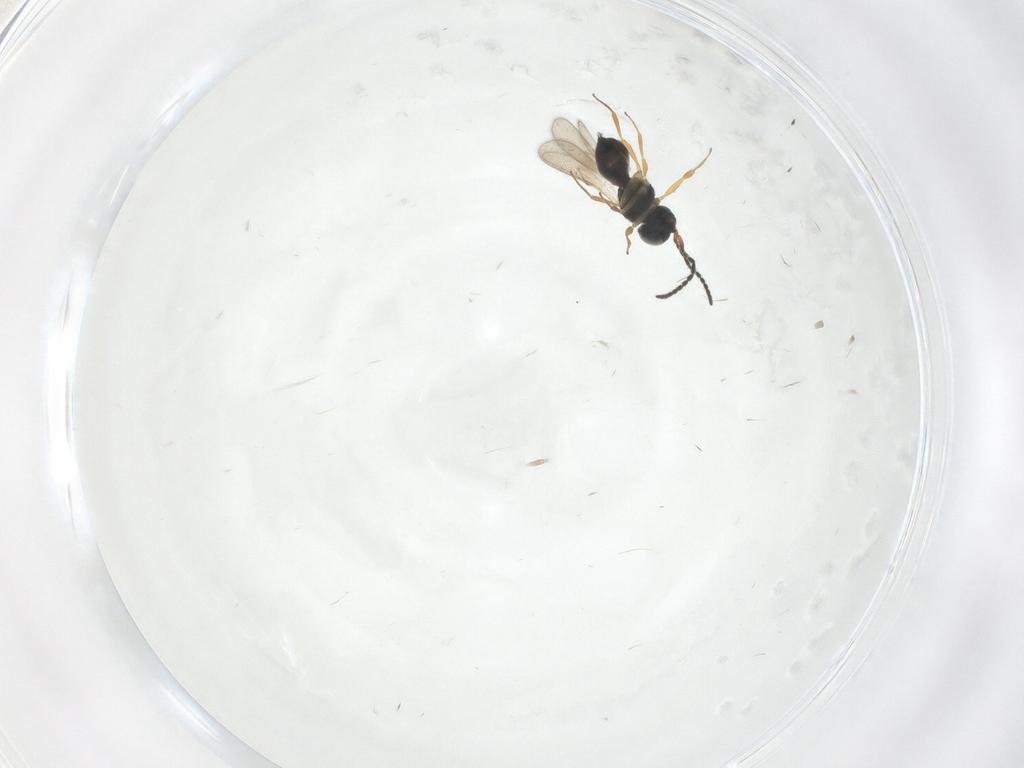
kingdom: Animalia
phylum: Arthropoda
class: Insecta
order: Hymenoptera
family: Scelionidae
